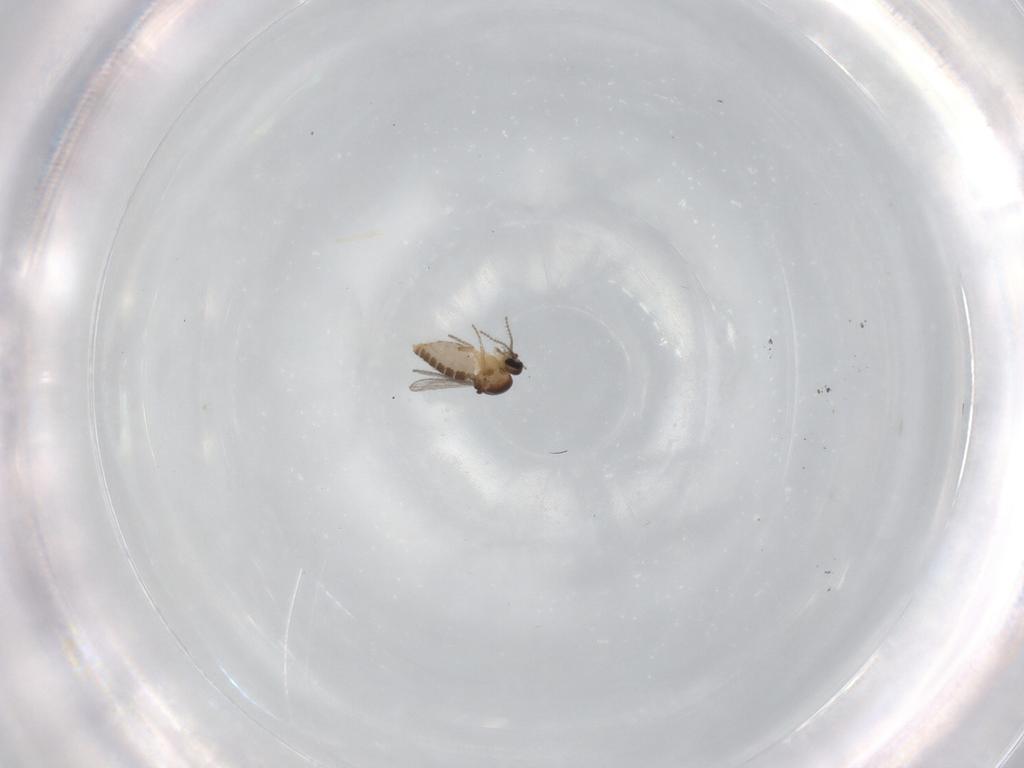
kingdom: Animalia
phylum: Arthropoda
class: Insecta
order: Diptera
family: Ceratopogonidae
